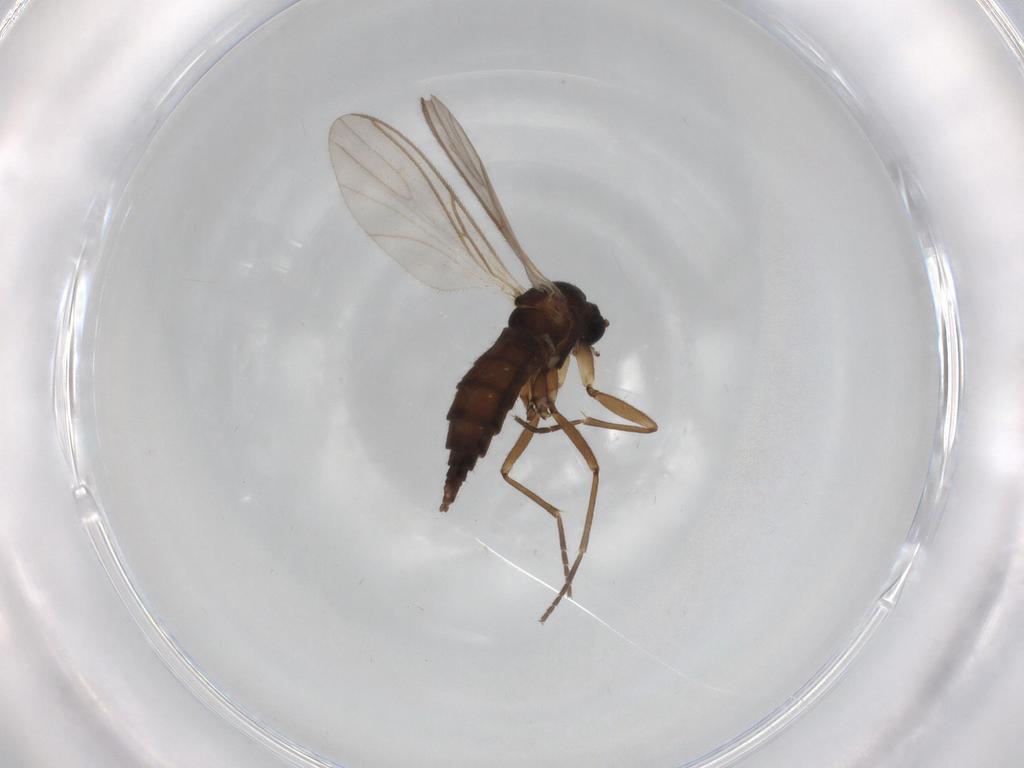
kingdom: Animalia
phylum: Arthropoda
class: Insecta
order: Diptera
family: Sciaridae
